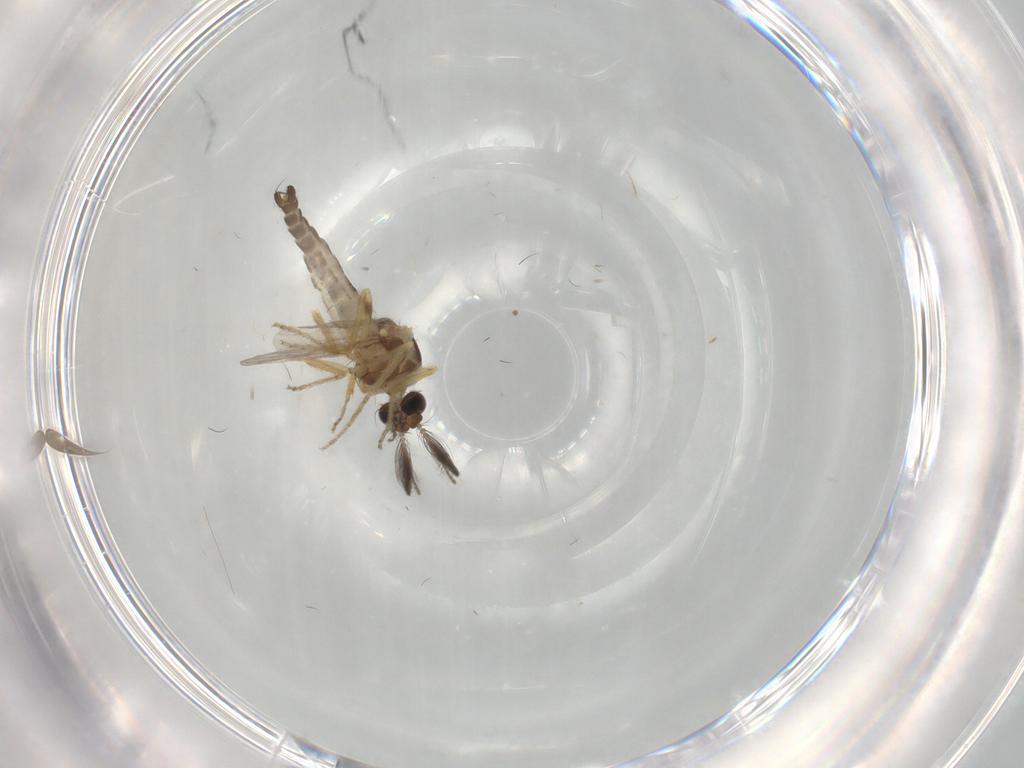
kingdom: Animalia
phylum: Arthropoda
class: Insecta
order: Diptera
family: Ceratopogonidae
